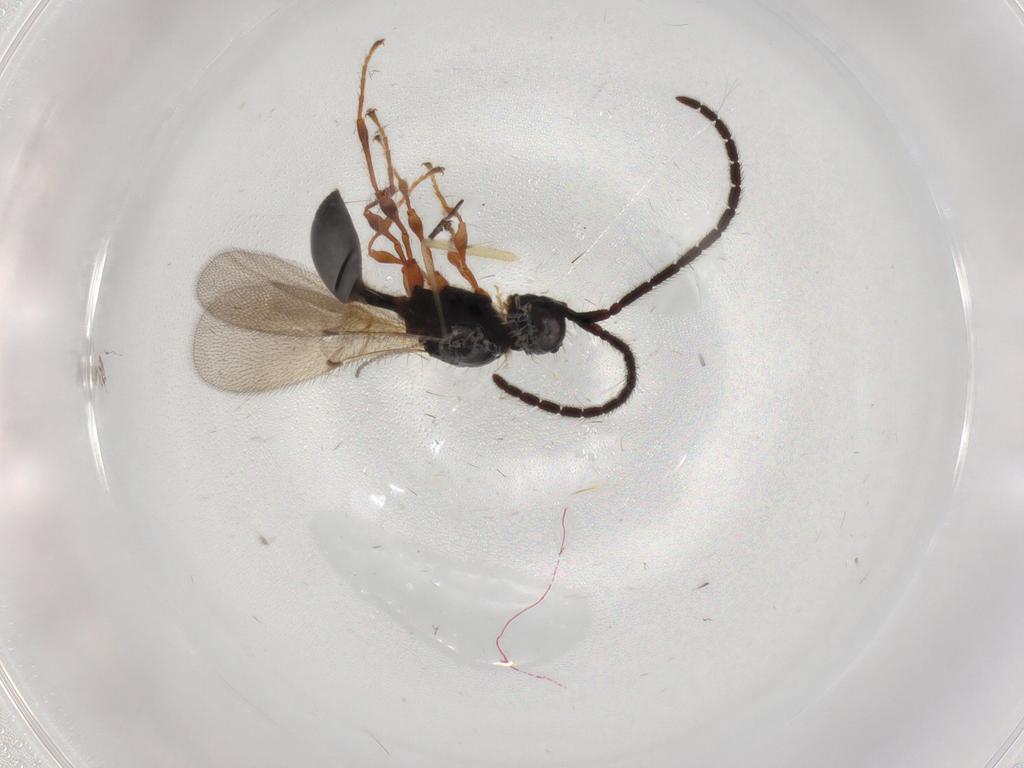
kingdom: Animalia
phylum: Arthropoda
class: Insecta
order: Hymenoptera
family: Diapriidae
